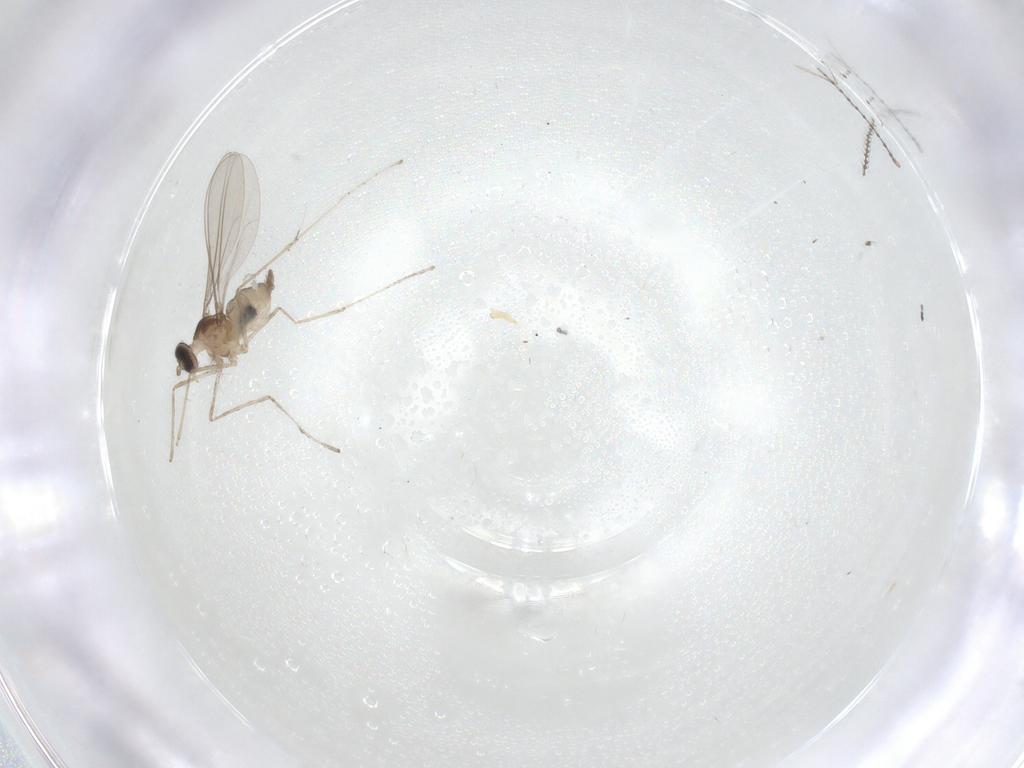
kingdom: Animalia
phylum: Arthropoda
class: Insecta
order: Diptera
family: Cecidomyiidae
